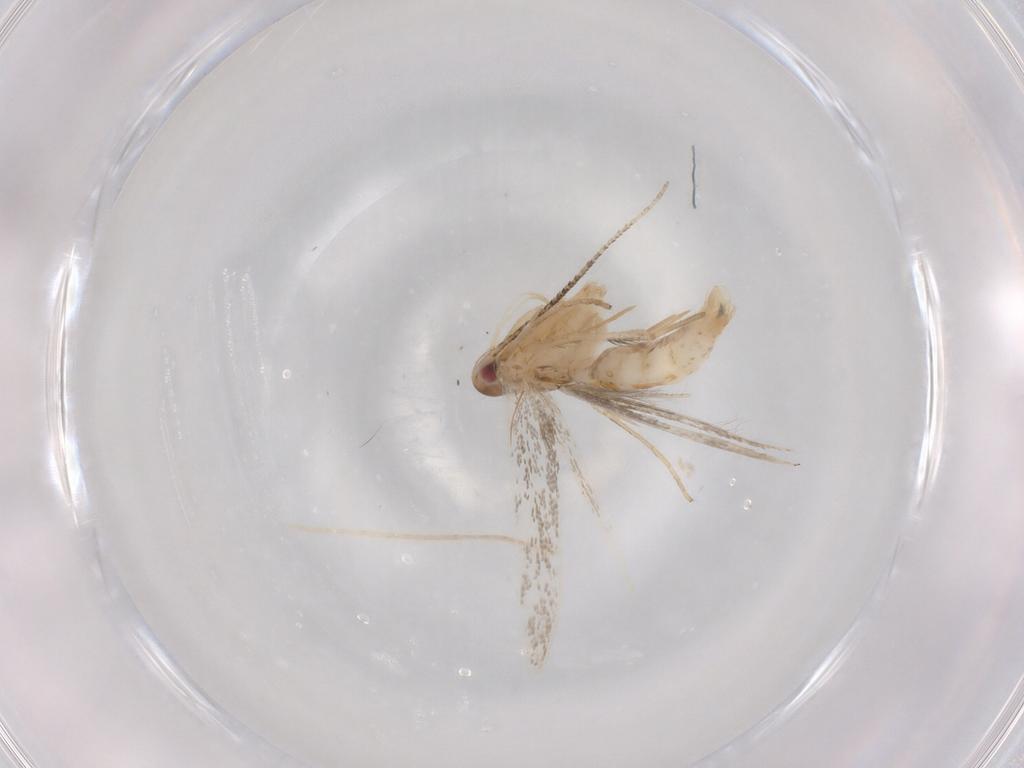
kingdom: Animalia
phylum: Arthropoda
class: Insecta
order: Lepidoptera
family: Cosmopterigidae
